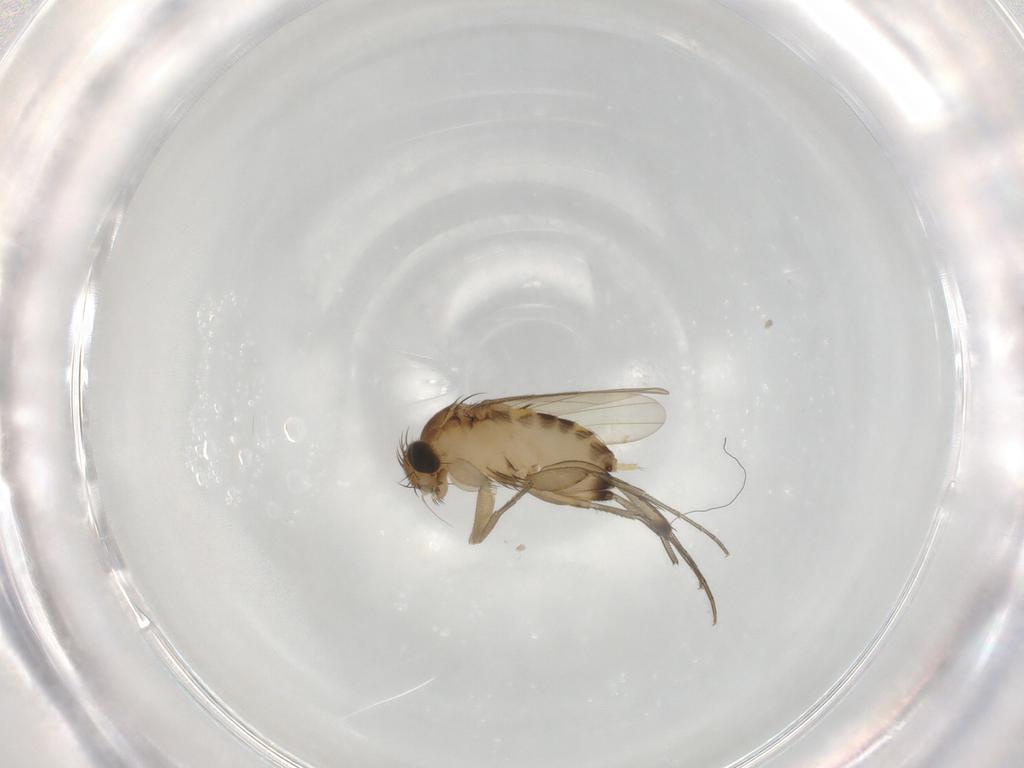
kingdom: Animalia
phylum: Arthropoda
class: Insecta
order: Diptera
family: Phoridae
